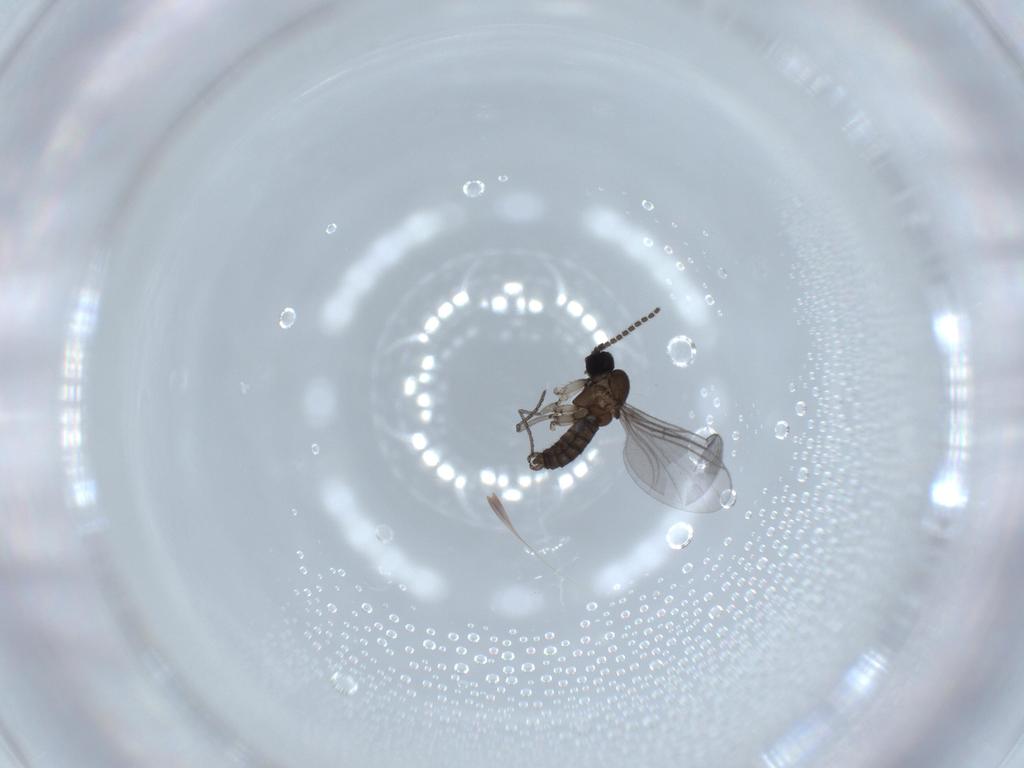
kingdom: Animalia
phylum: Arthropoda
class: Insecta
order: Diptera
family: Dolichopodidae
